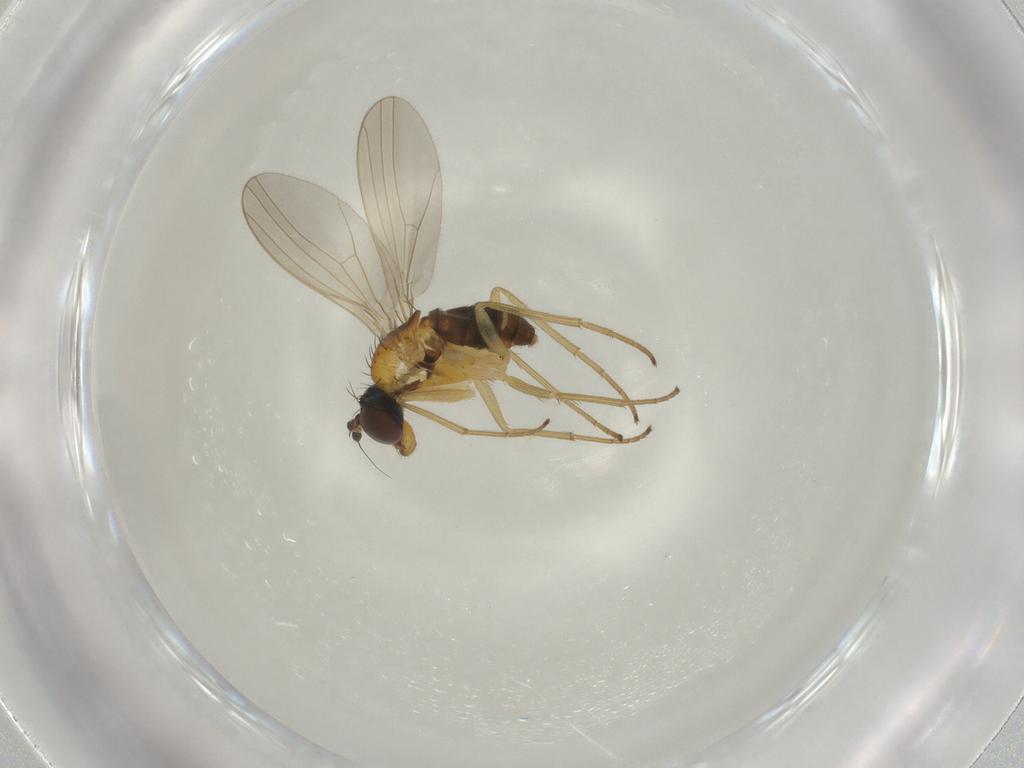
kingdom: Animalia
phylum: Arthropoda
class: Insecta
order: Diptera
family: Dolichopodidae
